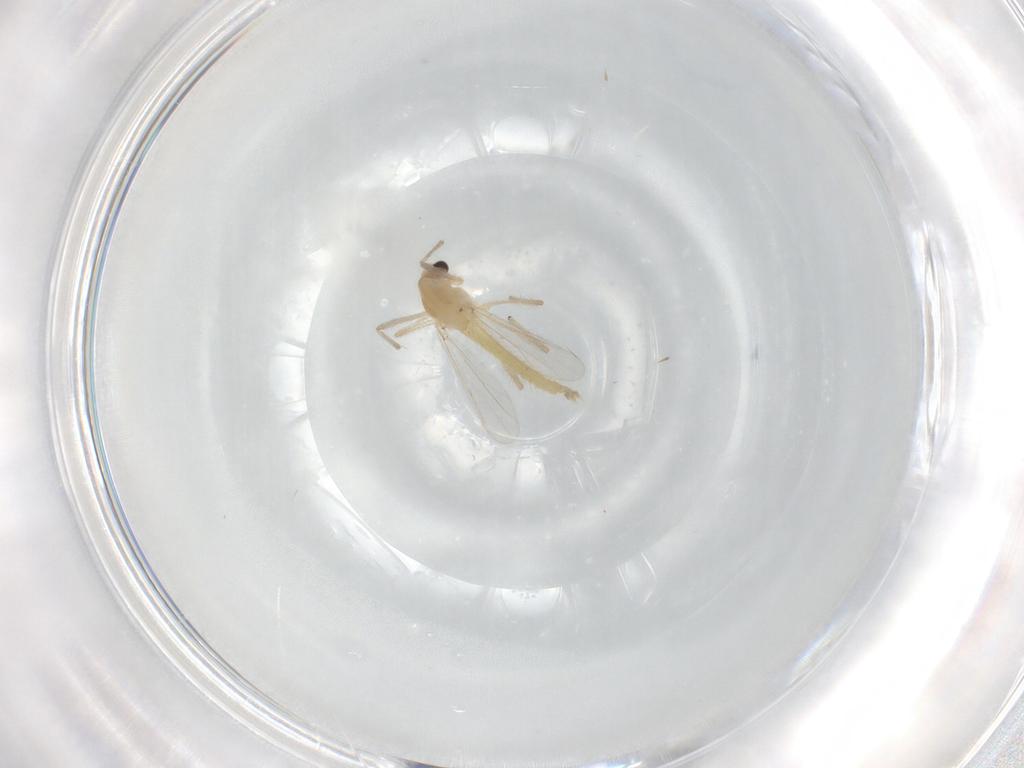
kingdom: Animalia
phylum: Arthropoda
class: Insecta
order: Diptera
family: Chironomidae
